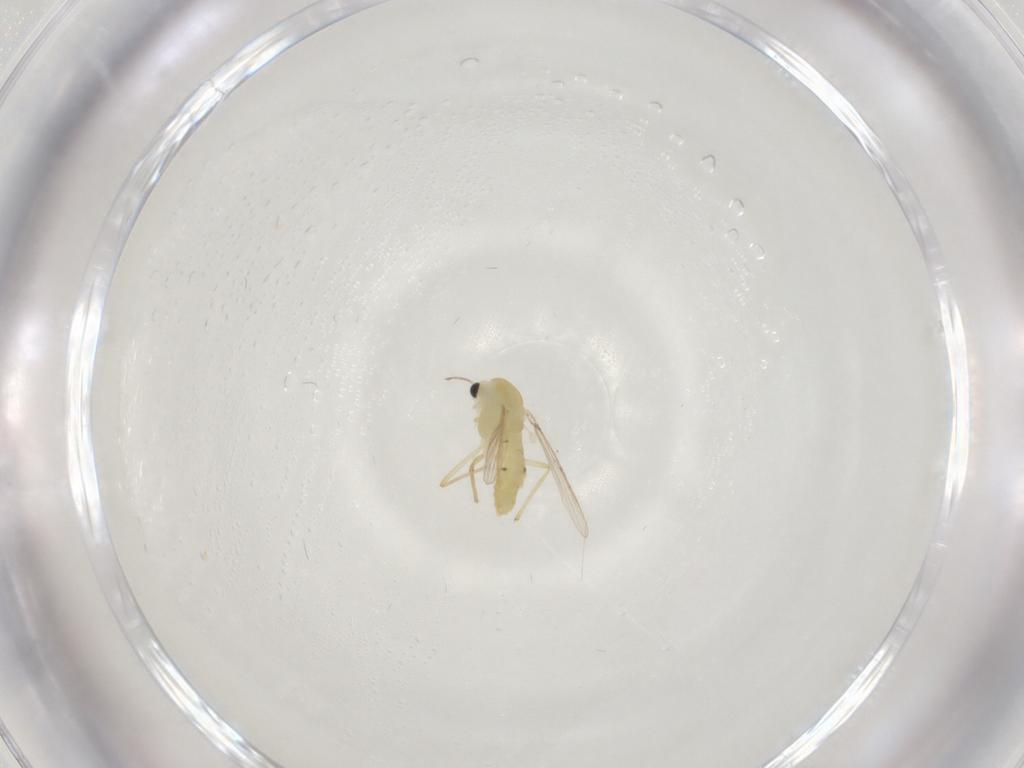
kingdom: Animalia
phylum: Arthropoda
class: Insecta
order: Diptera
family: Chironomidae
